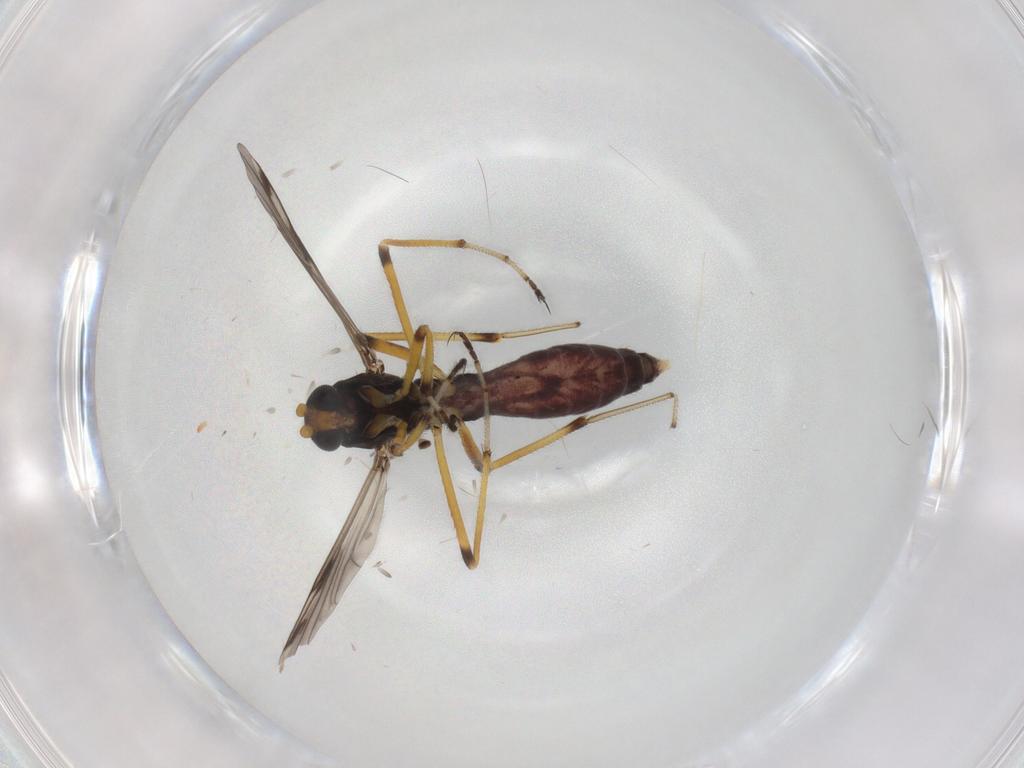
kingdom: Animalia
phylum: Arthropoda
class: Insecta
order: Diptera
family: Ceratopogonidae
